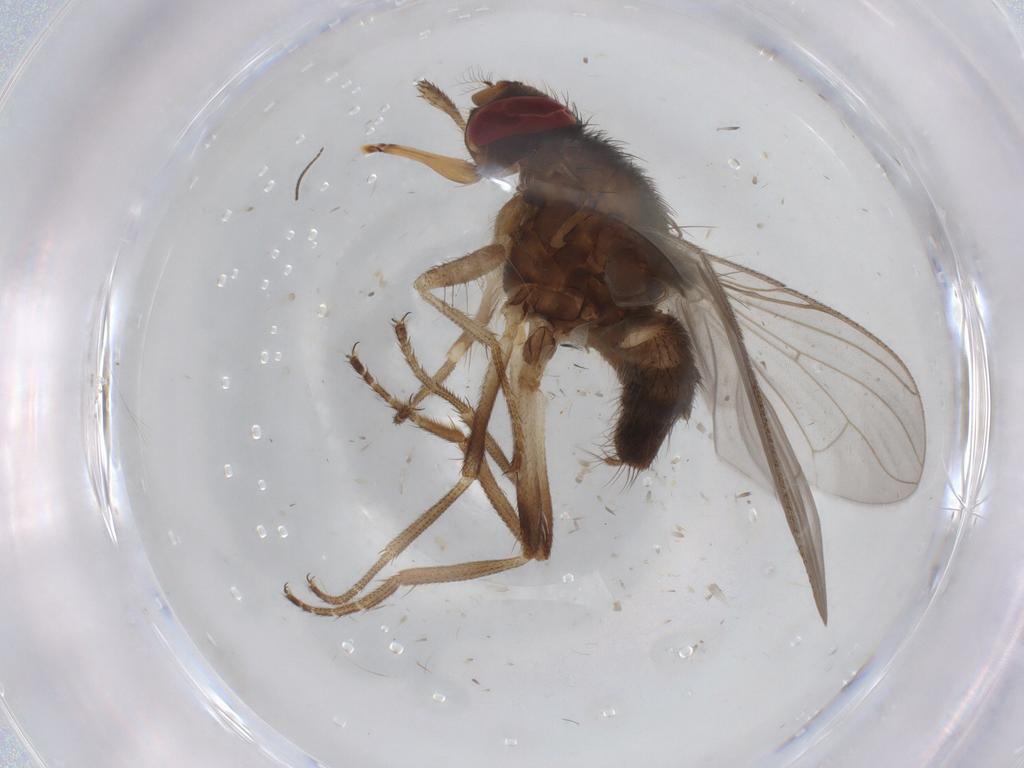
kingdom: Animalia
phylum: Arthropoda
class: Insecta
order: Diptera
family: Cecidomyiidae
